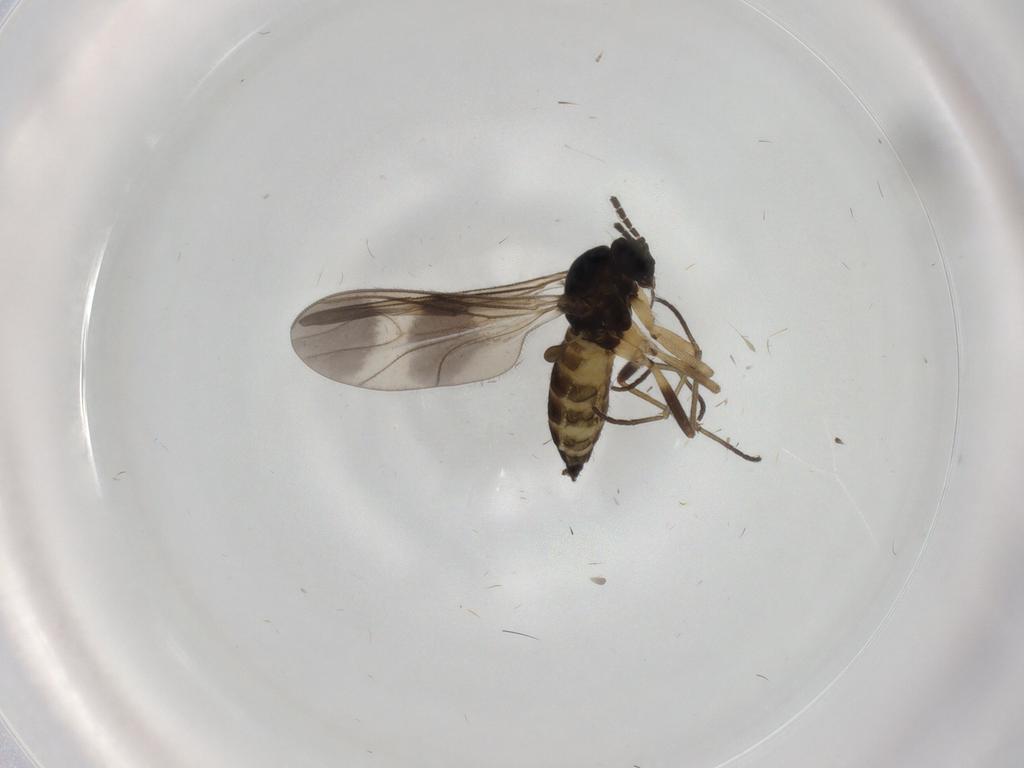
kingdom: Animalia
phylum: Arthropoda
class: Insecta
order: Diptera
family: Sciaridae
